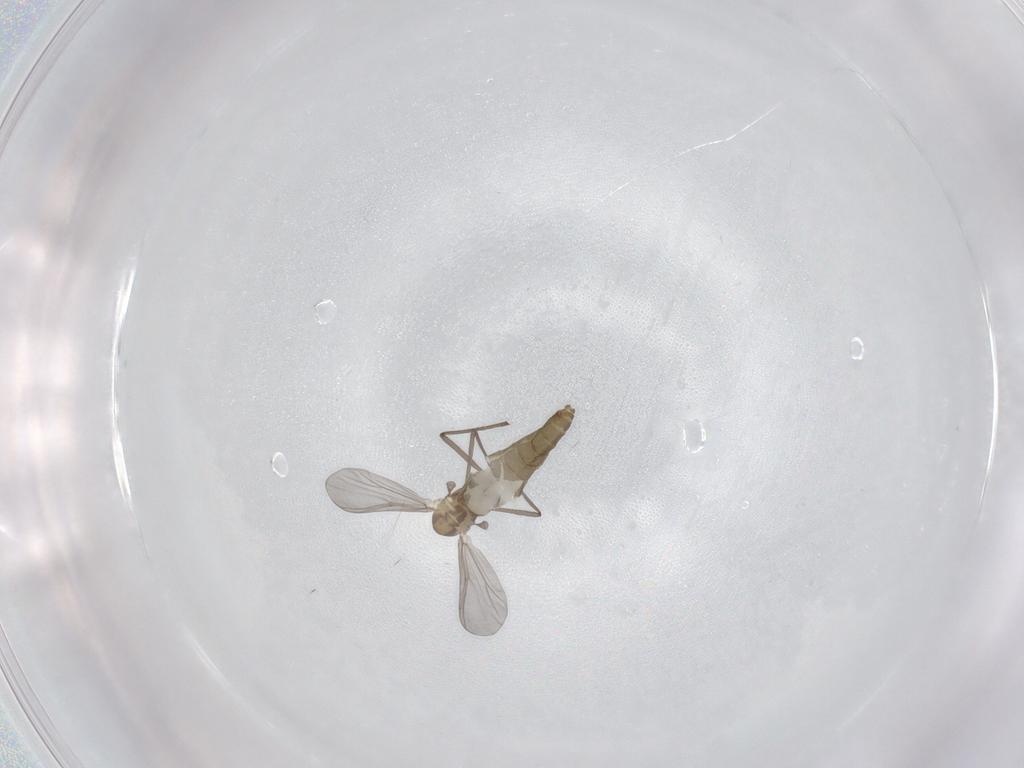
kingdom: Animalia
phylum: Arthropoda
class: Insecta
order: Diptera
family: Chironomidae
